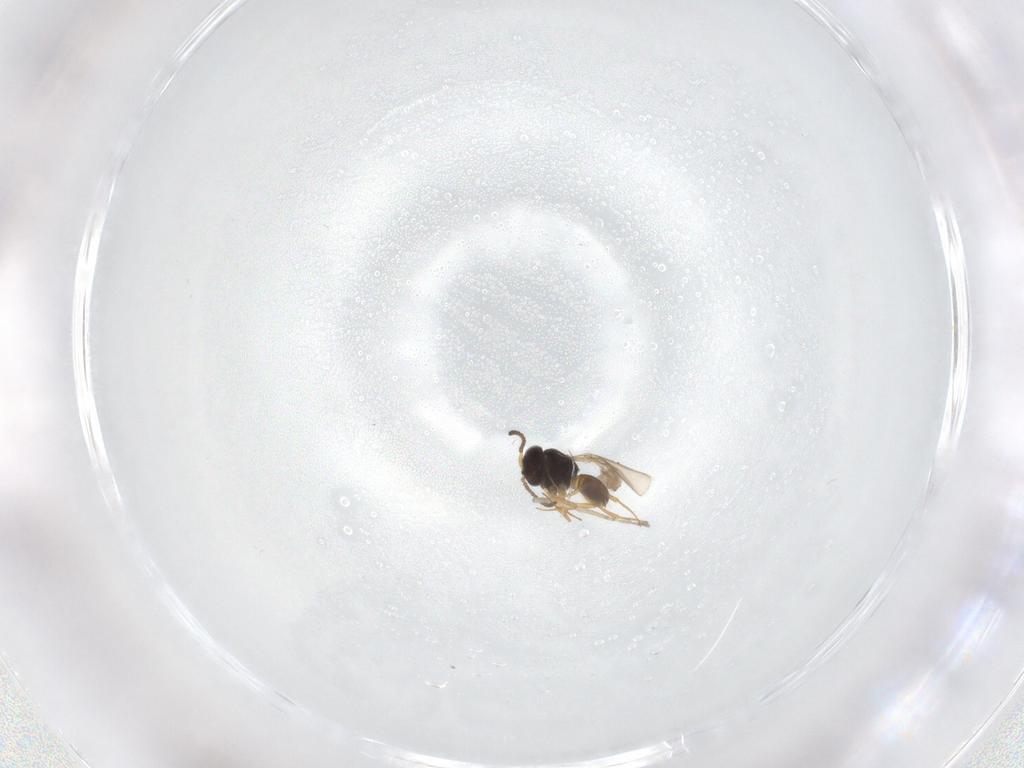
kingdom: Animalia
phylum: Arthropoda
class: Insecta
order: Hymenoptera
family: Scelionidae
